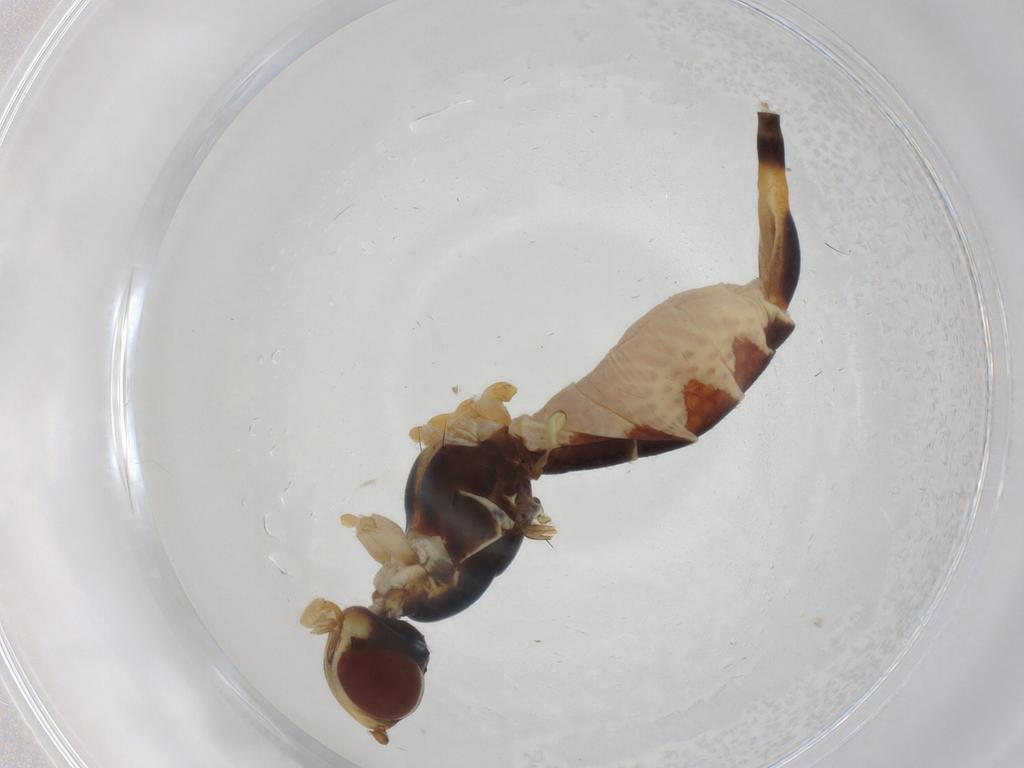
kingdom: Animalia
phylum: Arthropoda
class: Insecta
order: Diptera
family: Micropezidae
